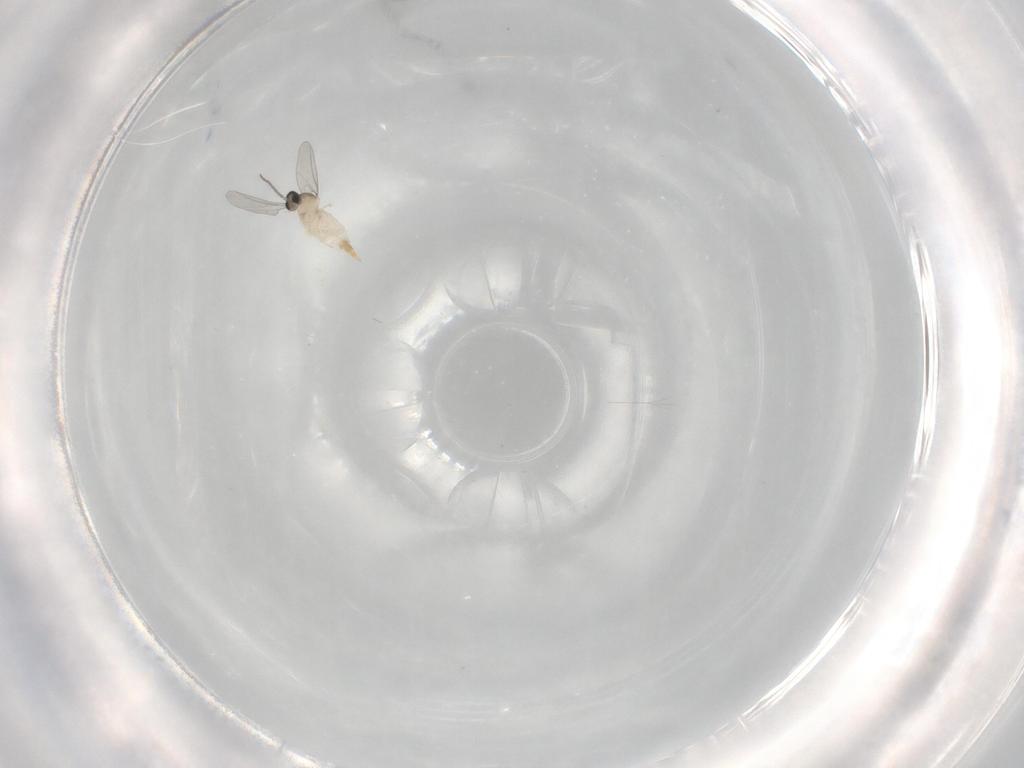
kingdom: Animalia
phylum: Arthropoda
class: Insecta
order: Diptera
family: Cecidomyiidae
